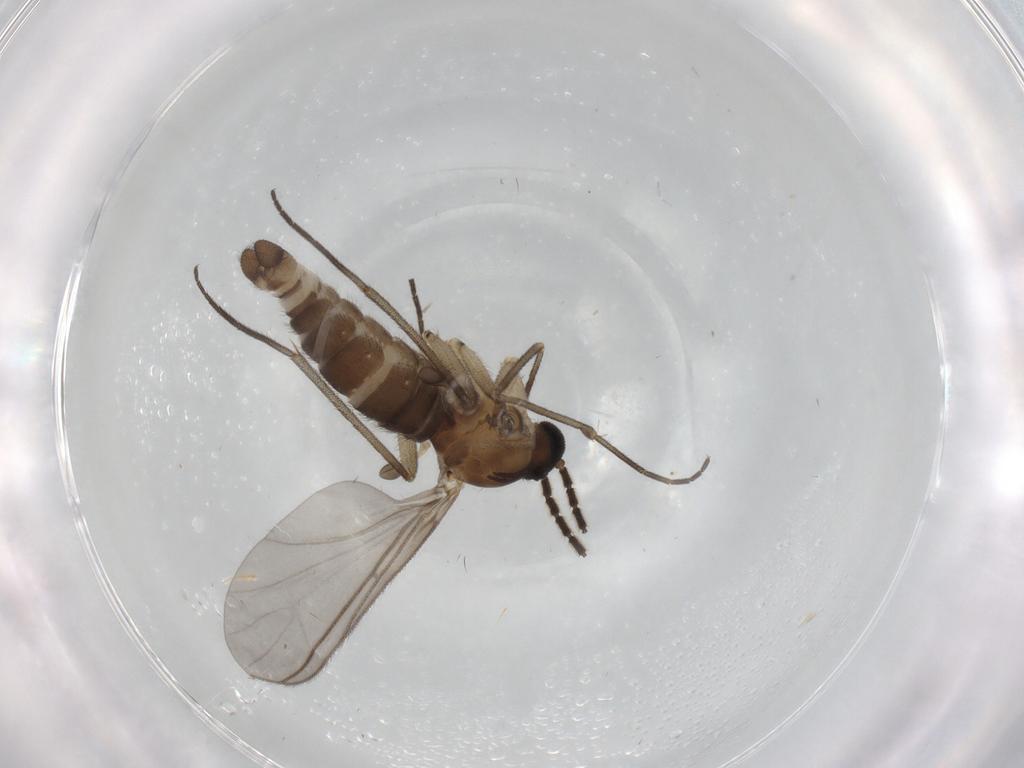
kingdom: Animalia
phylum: Arthropoda
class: Insecta
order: Diptera
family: Sciaridae
